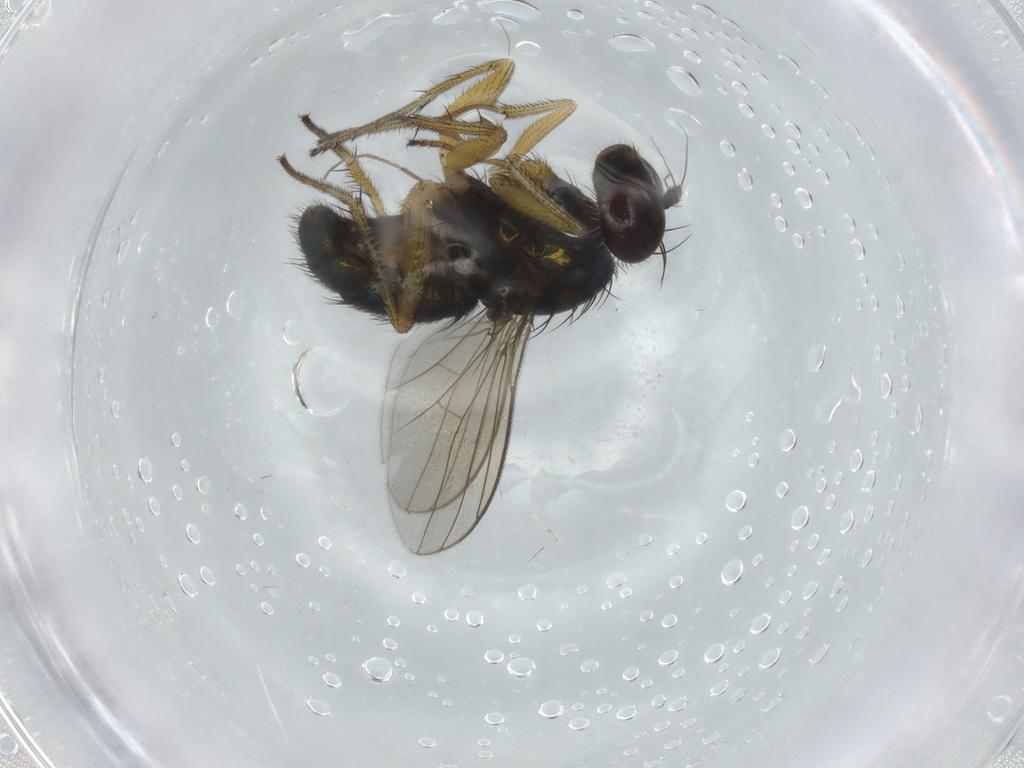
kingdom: Animalia
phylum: Arthropoda
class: Insecta
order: Diptera
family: Dolichopodidae
